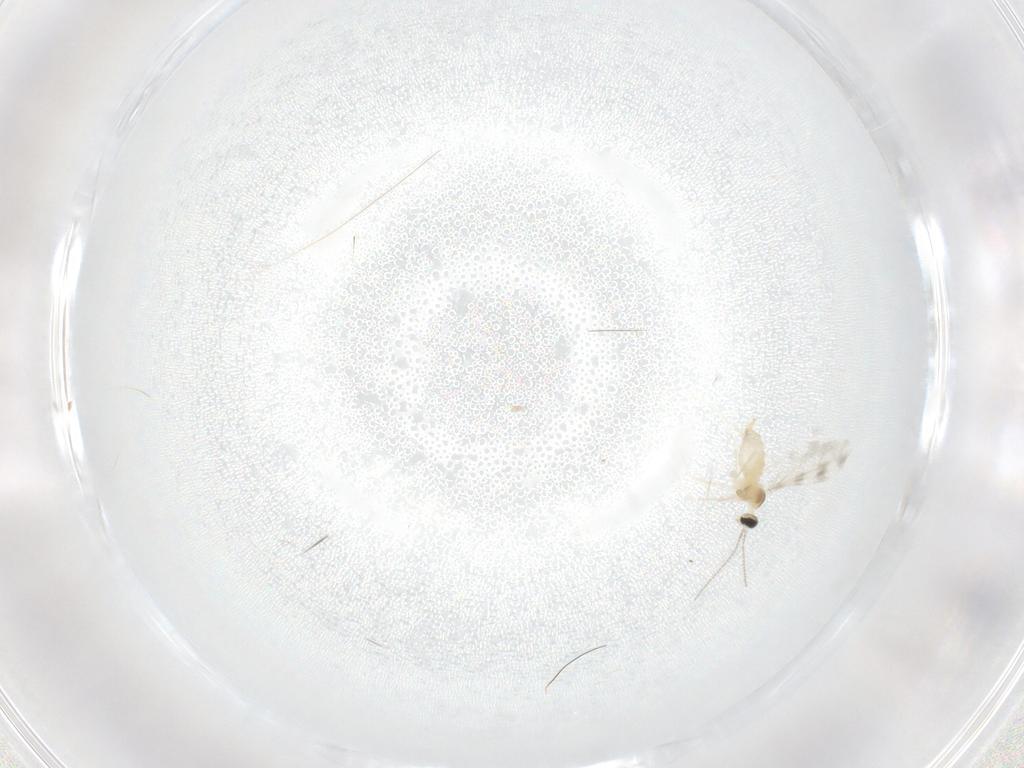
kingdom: Animalia
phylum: Arthropoda
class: Insecta
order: Diptera
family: Cecidomyiidae
